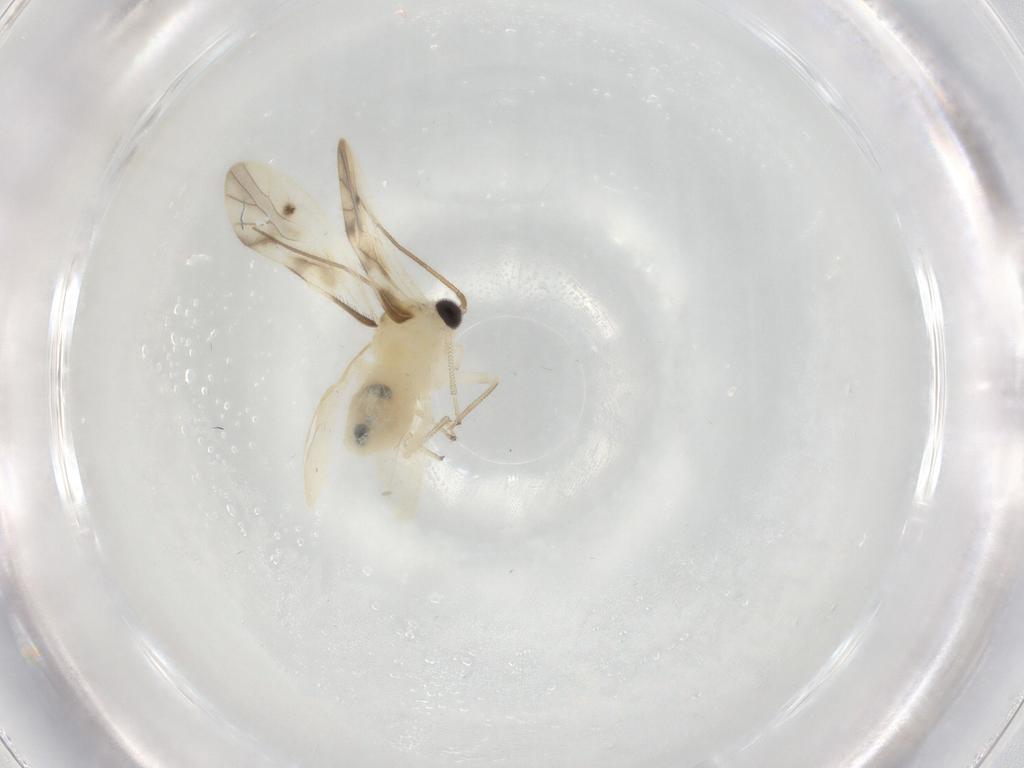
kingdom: Animalia
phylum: Arthropoda
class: Insecta
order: Psocodea
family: Caeciliusidae
